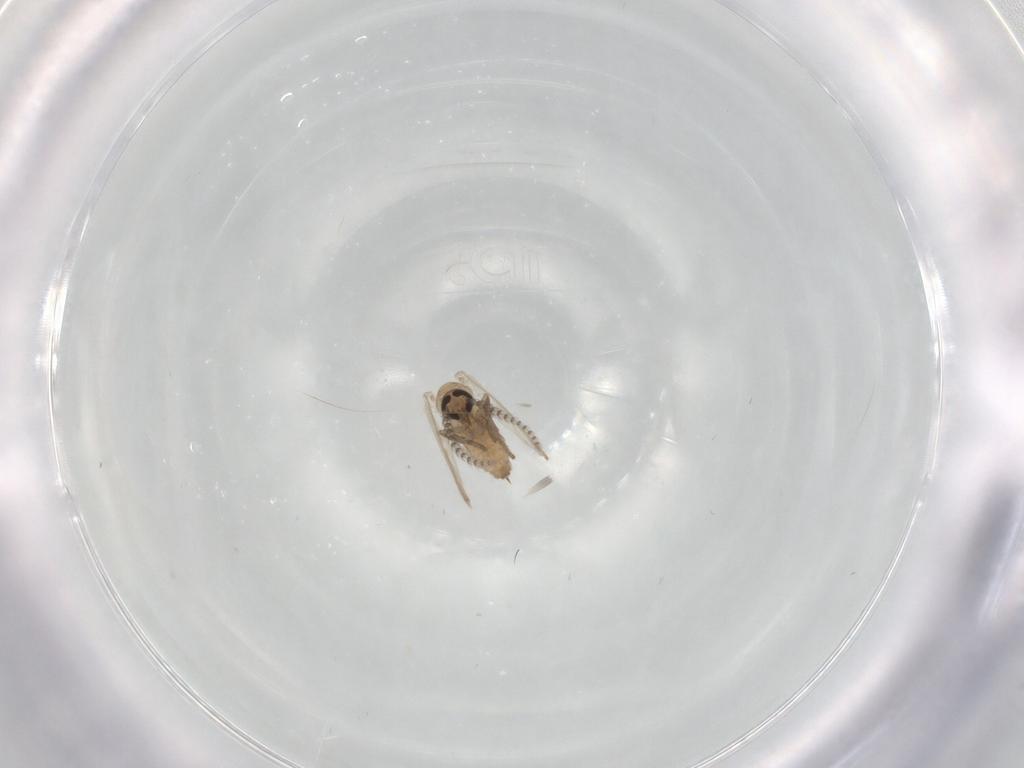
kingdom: Animalia
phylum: Arthropoda
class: Insecta
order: Diptera
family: Psychodidae
